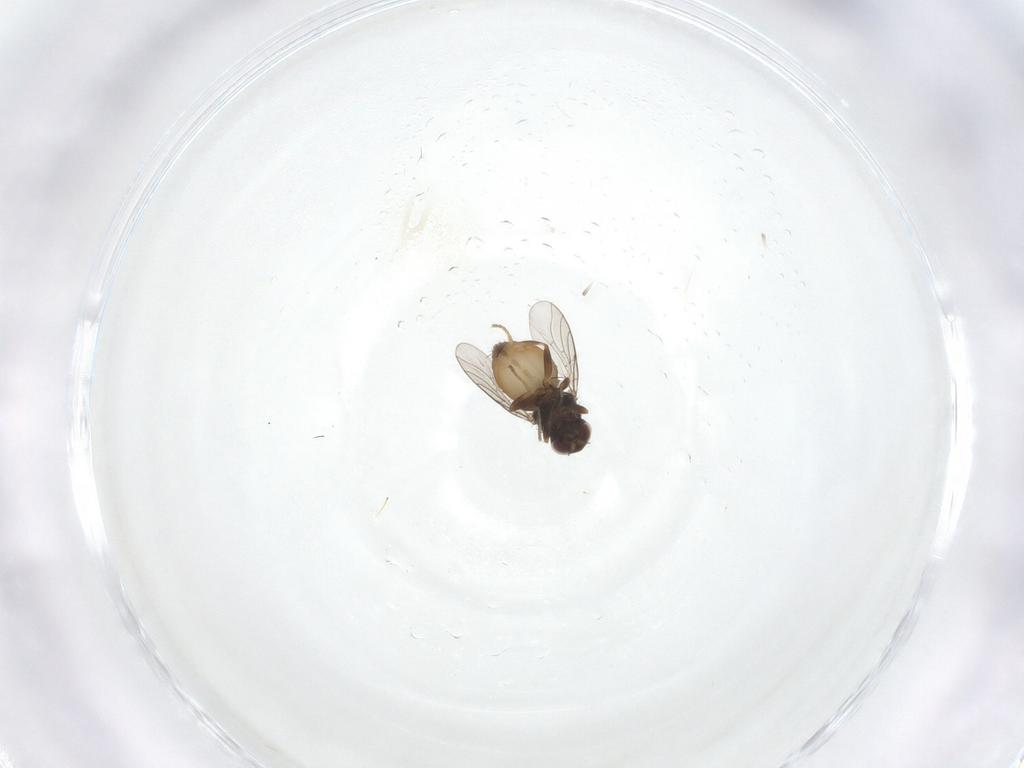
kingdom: Animalia
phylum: Arthropoda
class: Insecta
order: Diptera
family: Chloropidae
